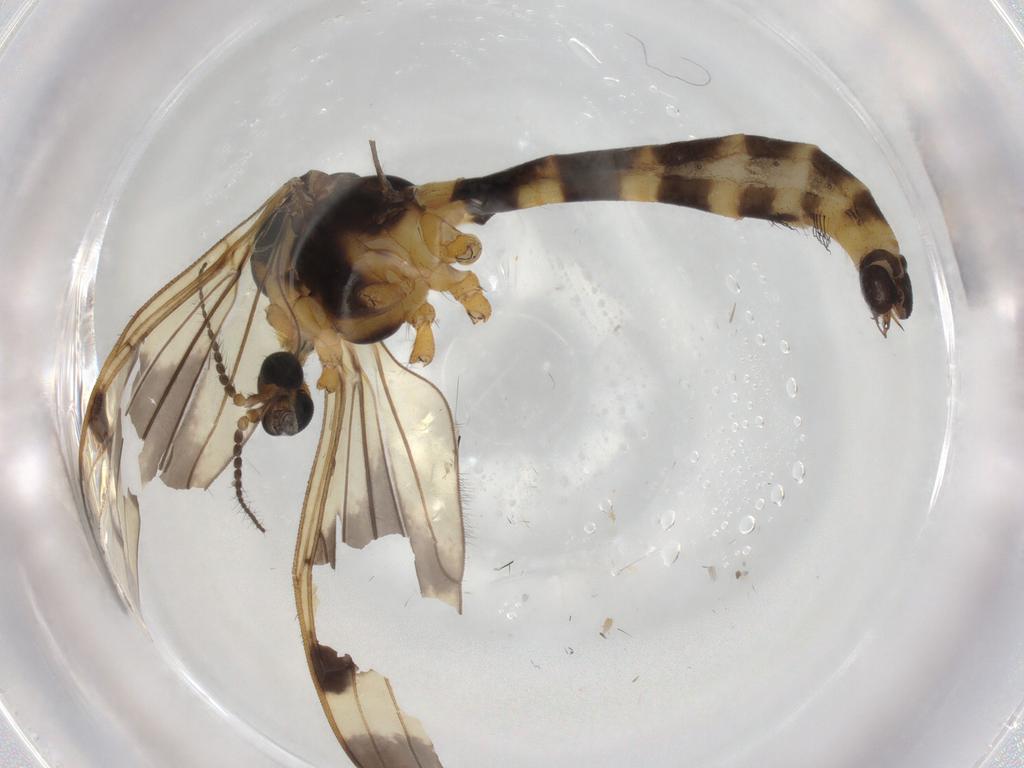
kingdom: Animalia
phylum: Arthropoda
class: Insecta
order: Diptera
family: Limoniidae
